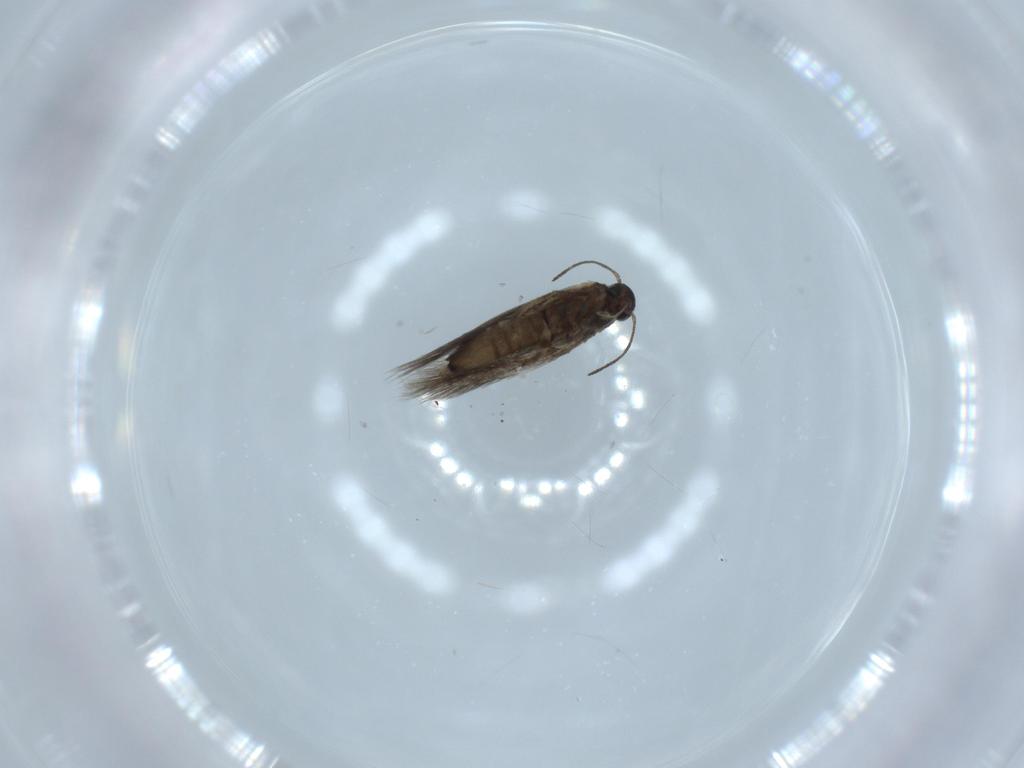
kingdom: Animalia
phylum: Arthropoda
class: Insecta
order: Lepidoptera
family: Heliozelidae
